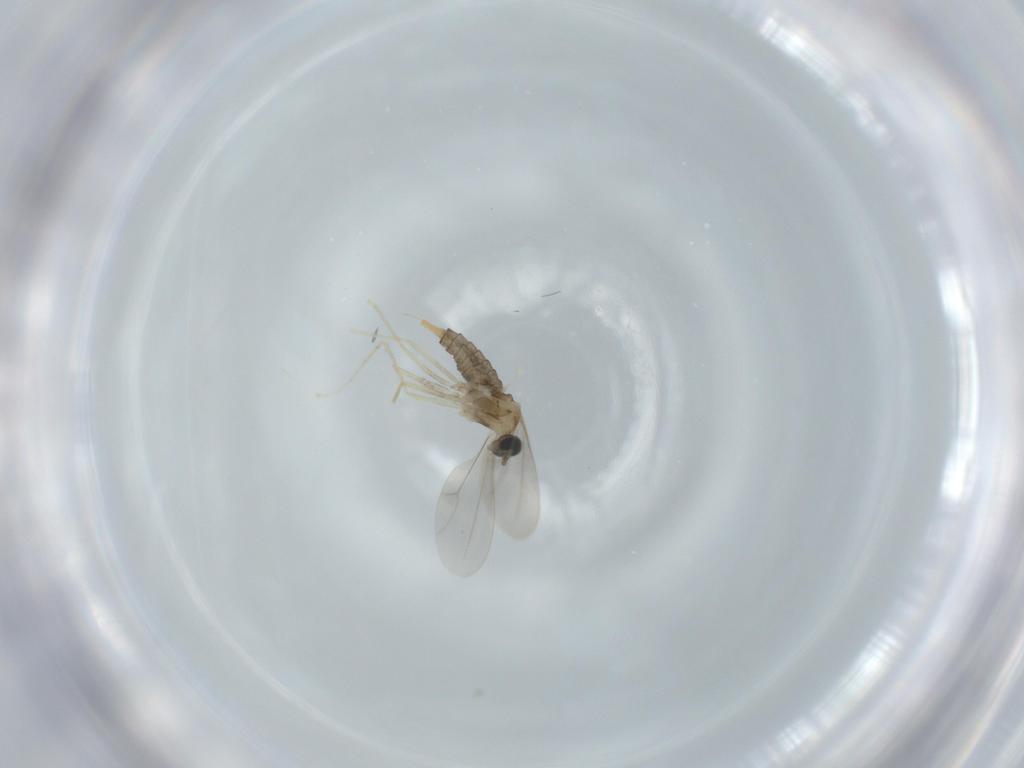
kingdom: Animalia
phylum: Arthropoda
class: Insecta
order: Diptera
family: Cecidomyiidae
